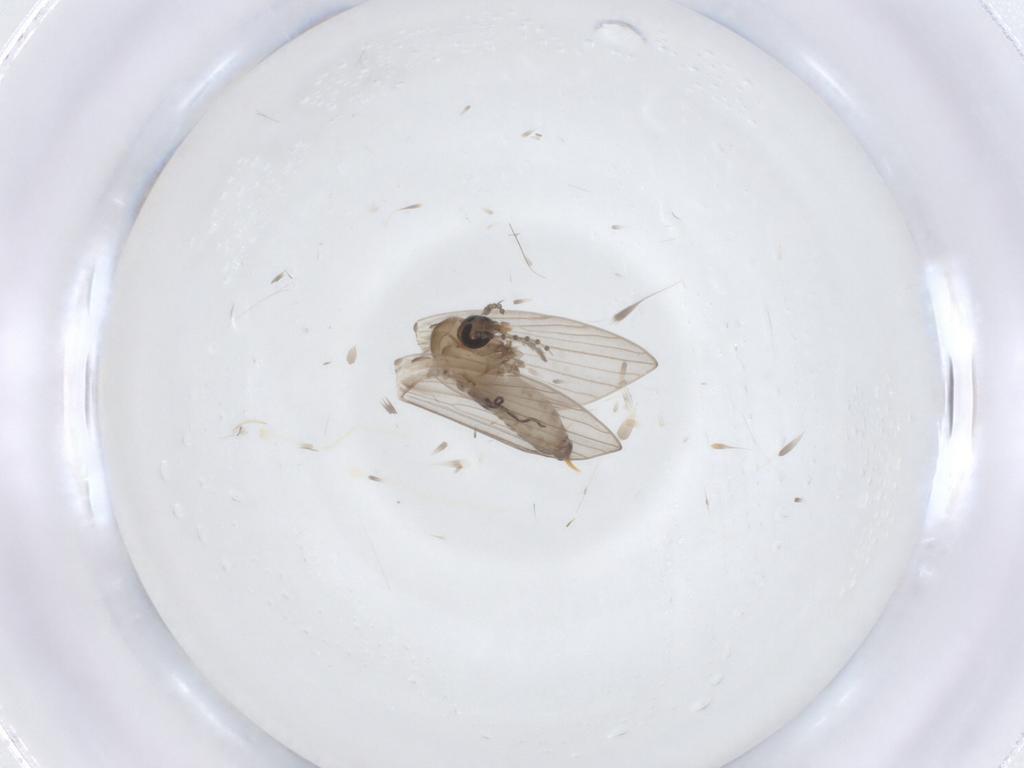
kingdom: Animalia
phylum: Arthropoda
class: Insecta
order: Diptera
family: Psychodidae
